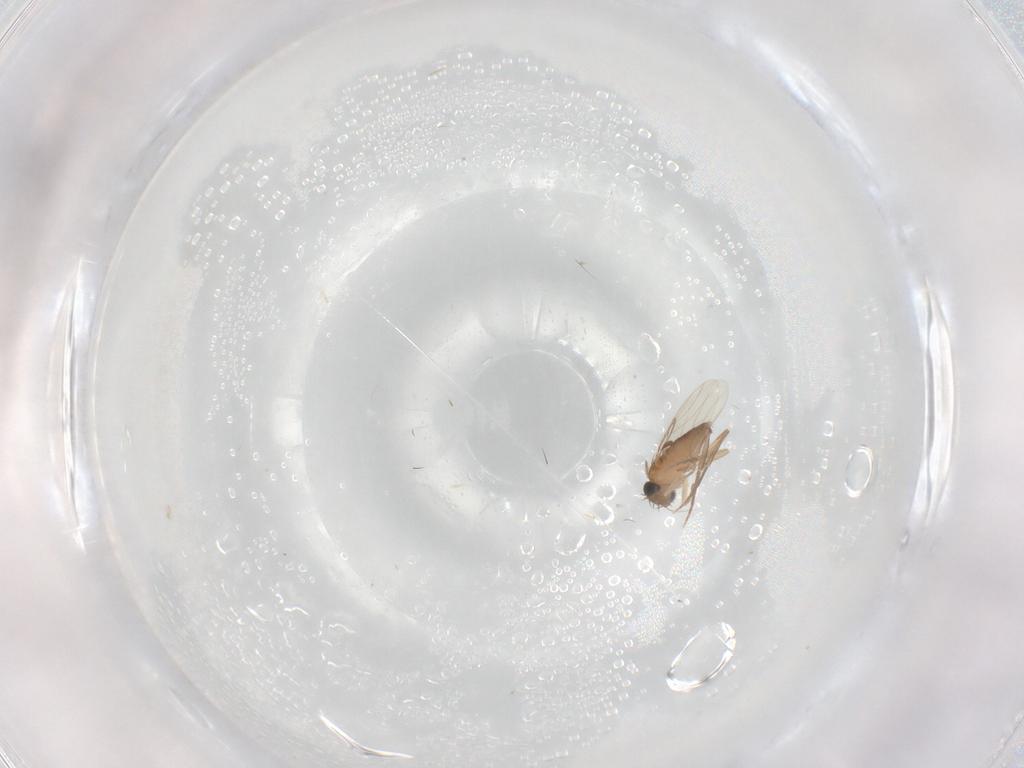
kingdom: Animalia
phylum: Arthropoda
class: Insecta
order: Diptera
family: Phoridae
